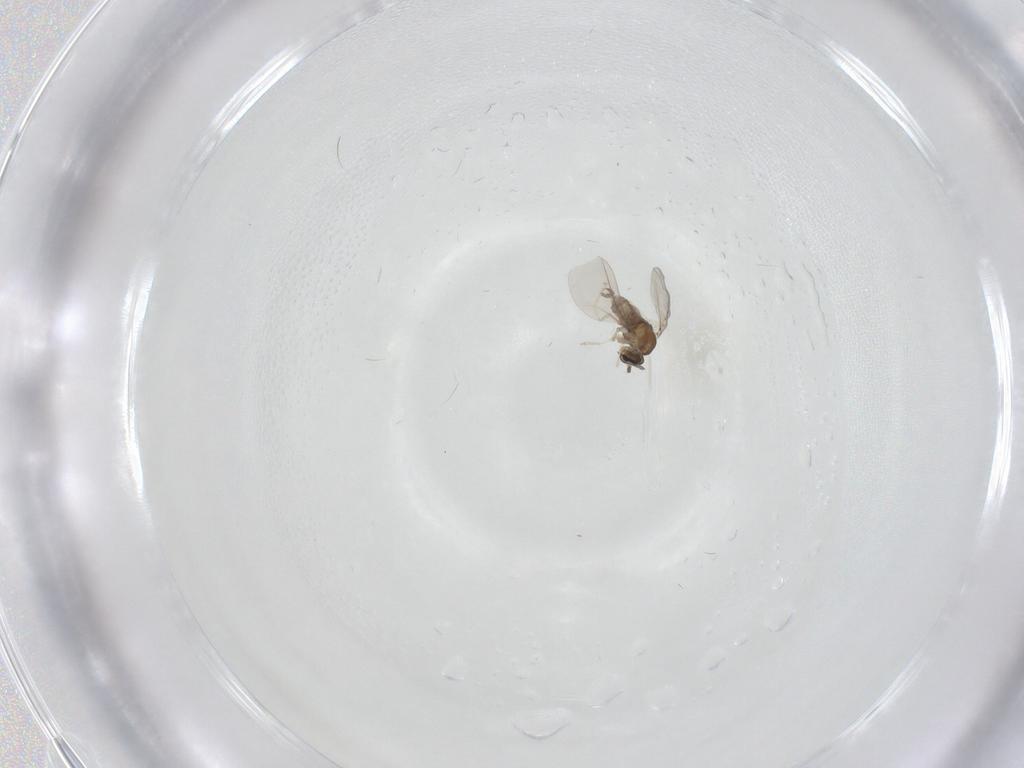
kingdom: Animalia
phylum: Arthropoda
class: Insecta
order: Diptera
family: Cecidomyiidae
